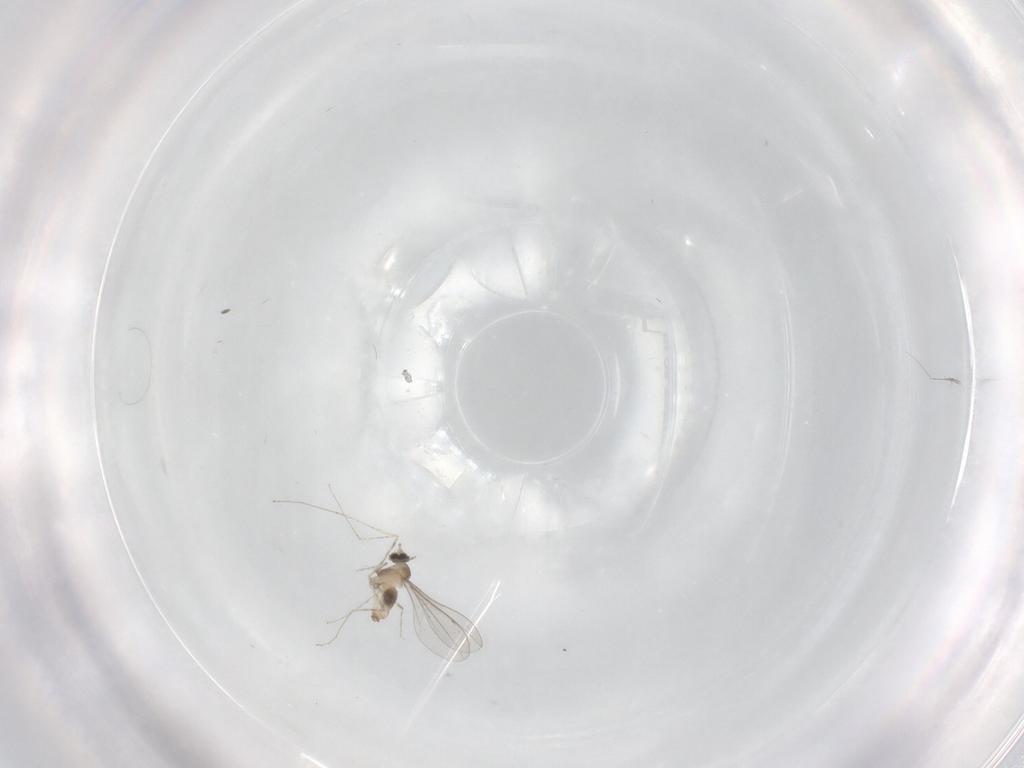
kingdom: Animalia
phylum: Arthropoda
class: Insecta
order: Diptera
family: Cecidomyiidae
